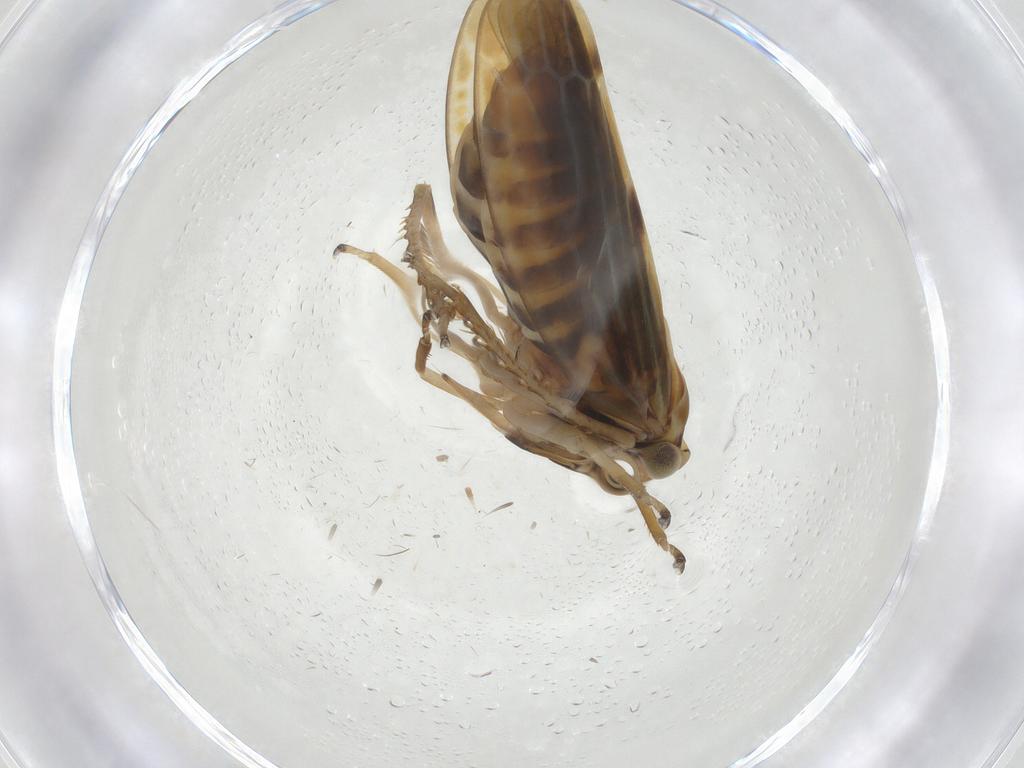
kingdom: Animalia
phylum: Arthropoda
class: Insecta
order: Hemiptera
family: Cicadellidae
